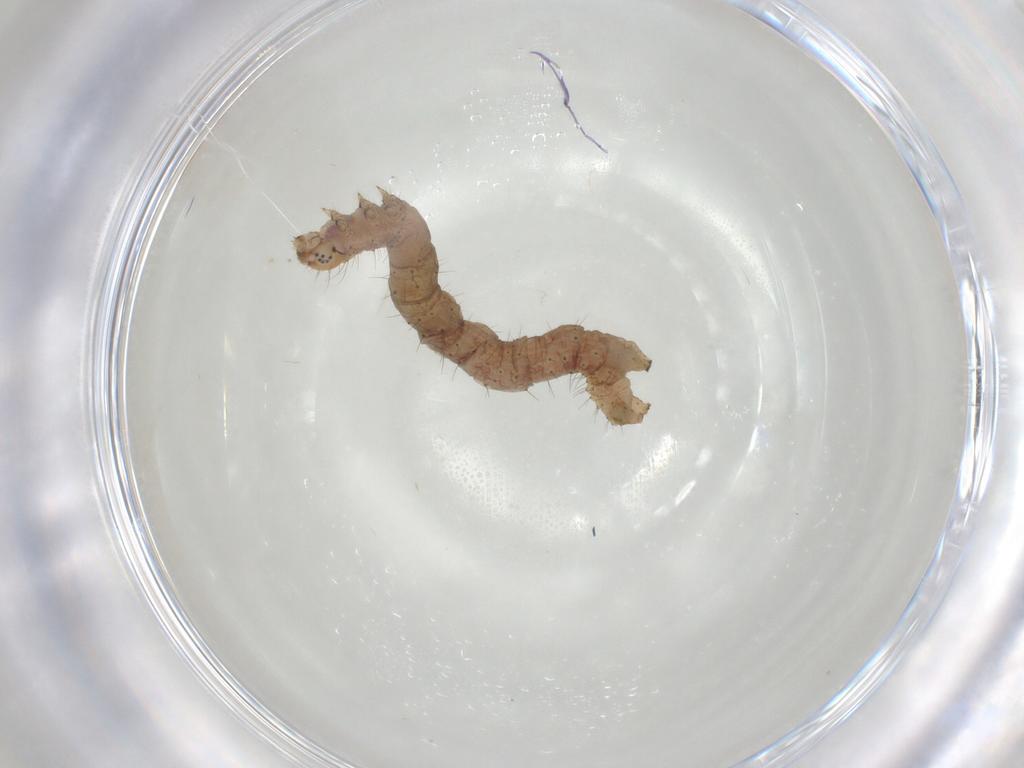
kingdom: Animalia
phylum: Arthropoda
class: Insecta
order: Lepidoptera
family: Geometridae
